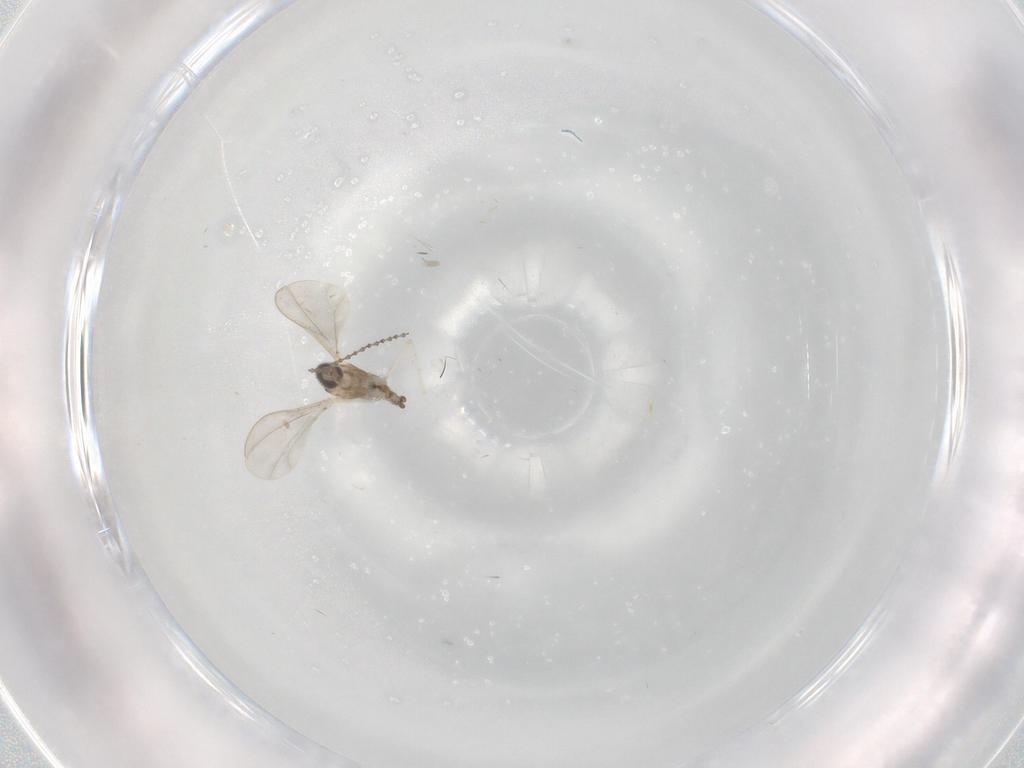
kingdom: Animalia
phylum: Arthropoda
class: Insecta
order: Diptera
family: Cecidomyiidae
